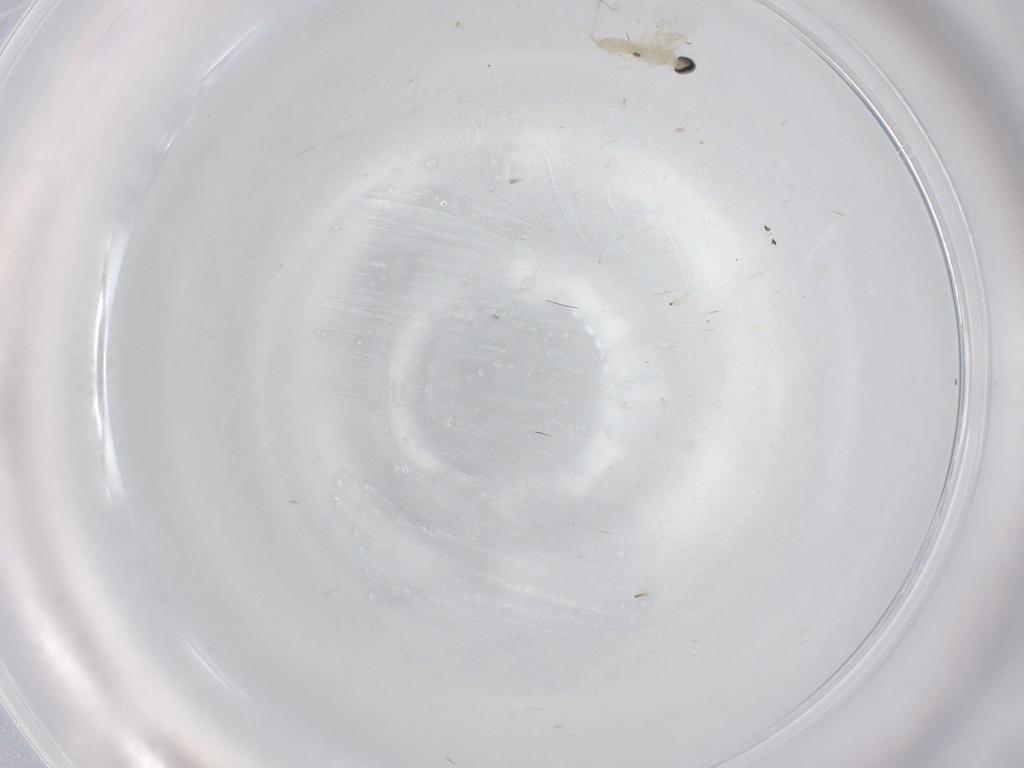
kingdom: Animalia
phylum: Arthropoda
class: Insecta
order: Diptera
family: Cecidomyiidae
